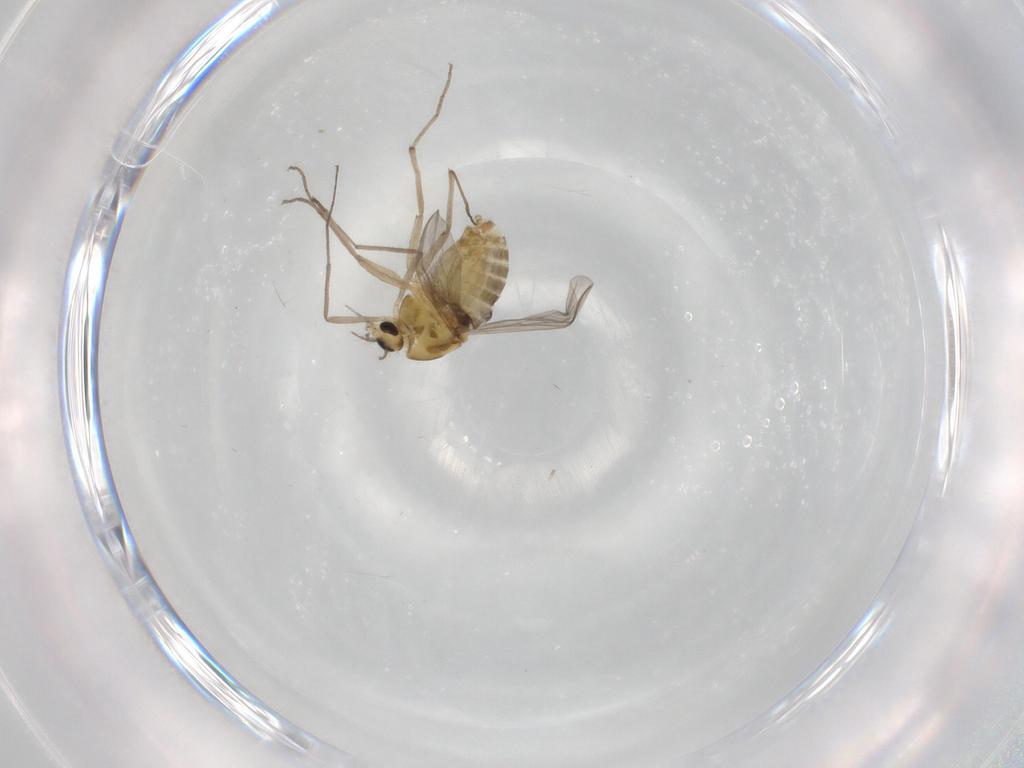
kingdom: Animalia
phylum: Arthropoda
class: Insecta
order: Diptera
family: Chironomidae
